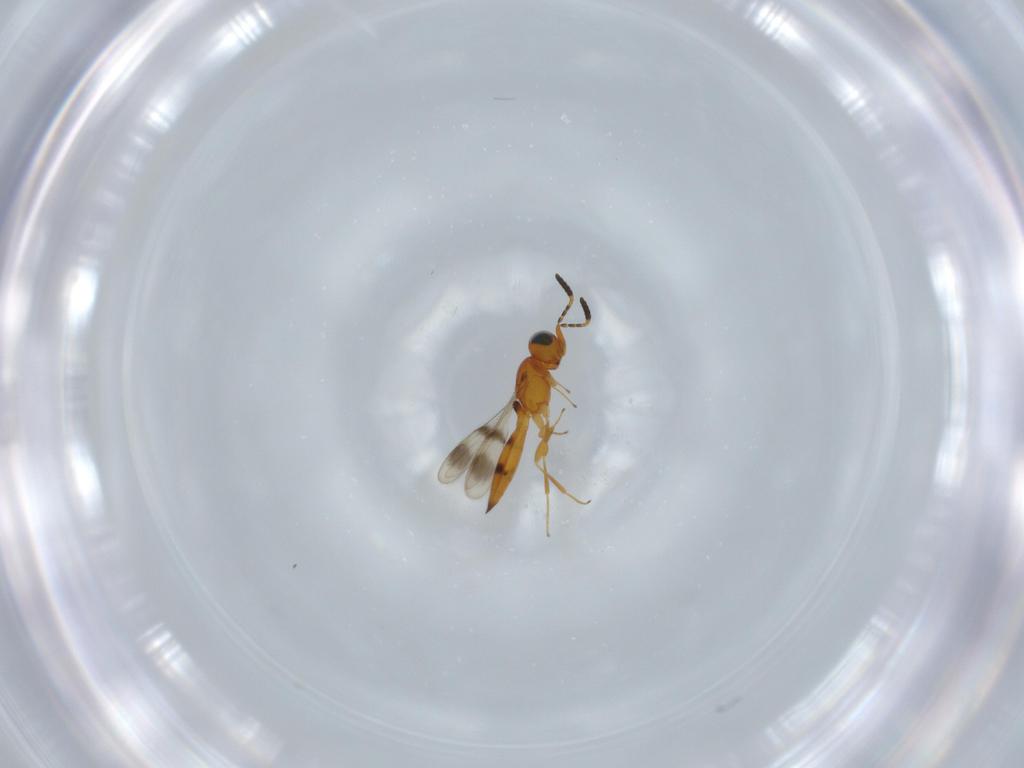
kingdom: Animalia
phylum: Arthropoda
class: Insecta
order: Hymenoptera
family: Scelionidae
